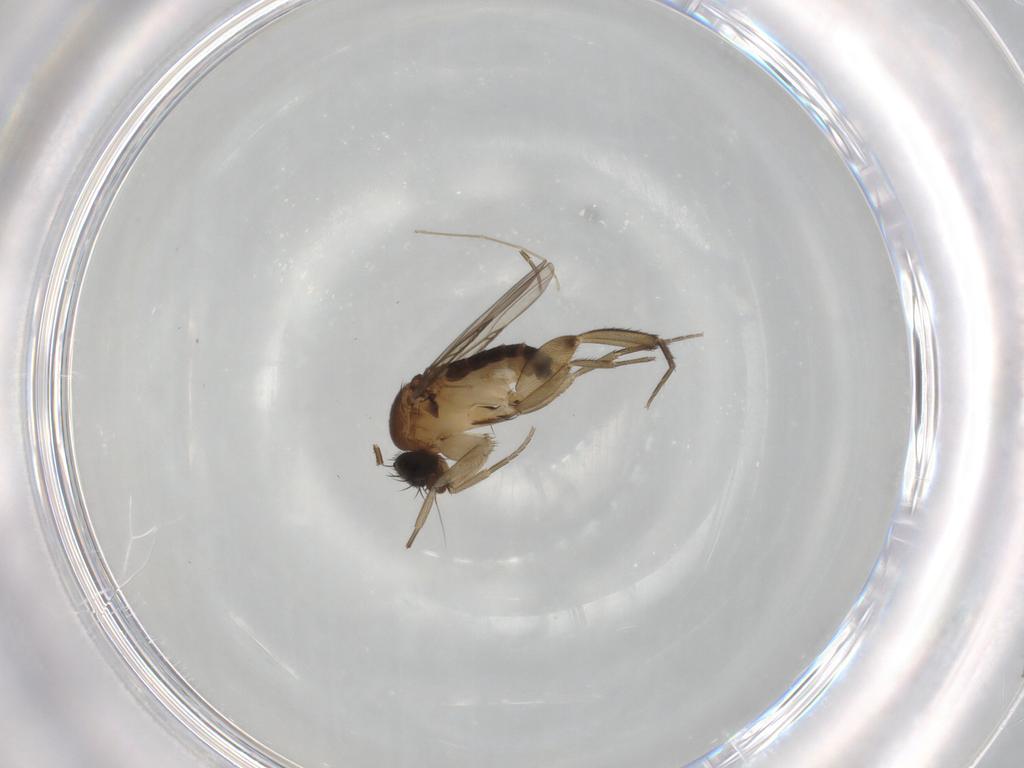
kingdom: Animalia
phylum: Arthropoda
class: Insecta
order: Diptera
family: Phoridae
